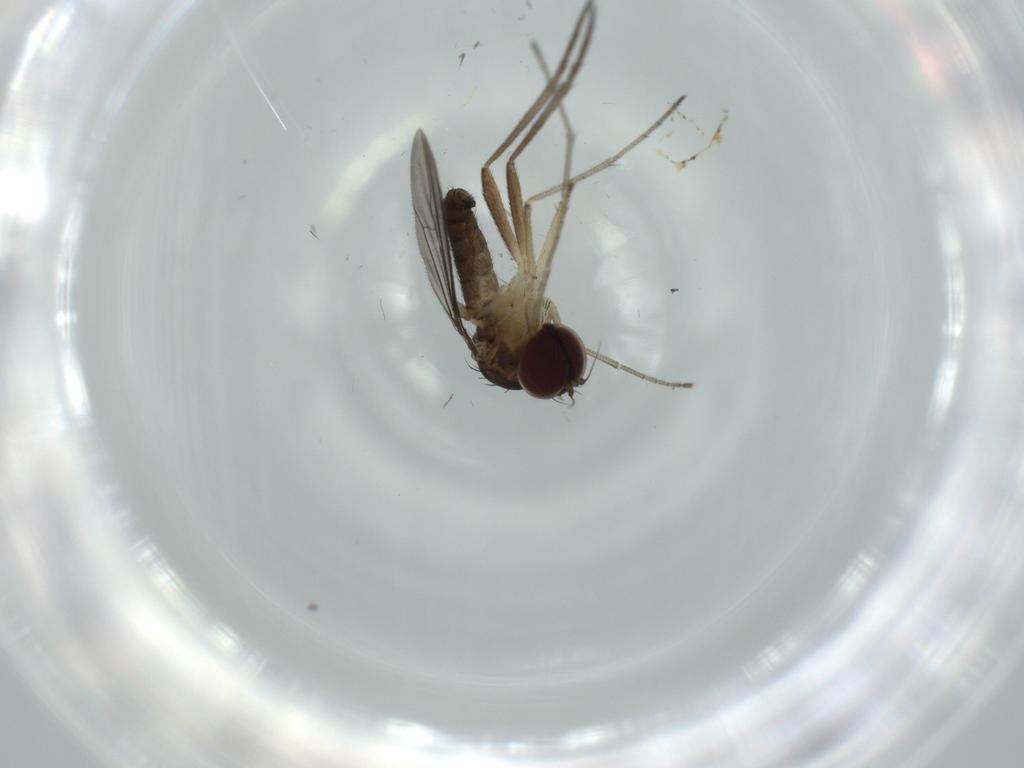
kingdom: Animalia
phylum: Arthropoda
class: Insecta
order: Diptera
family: Dolichopodidae
